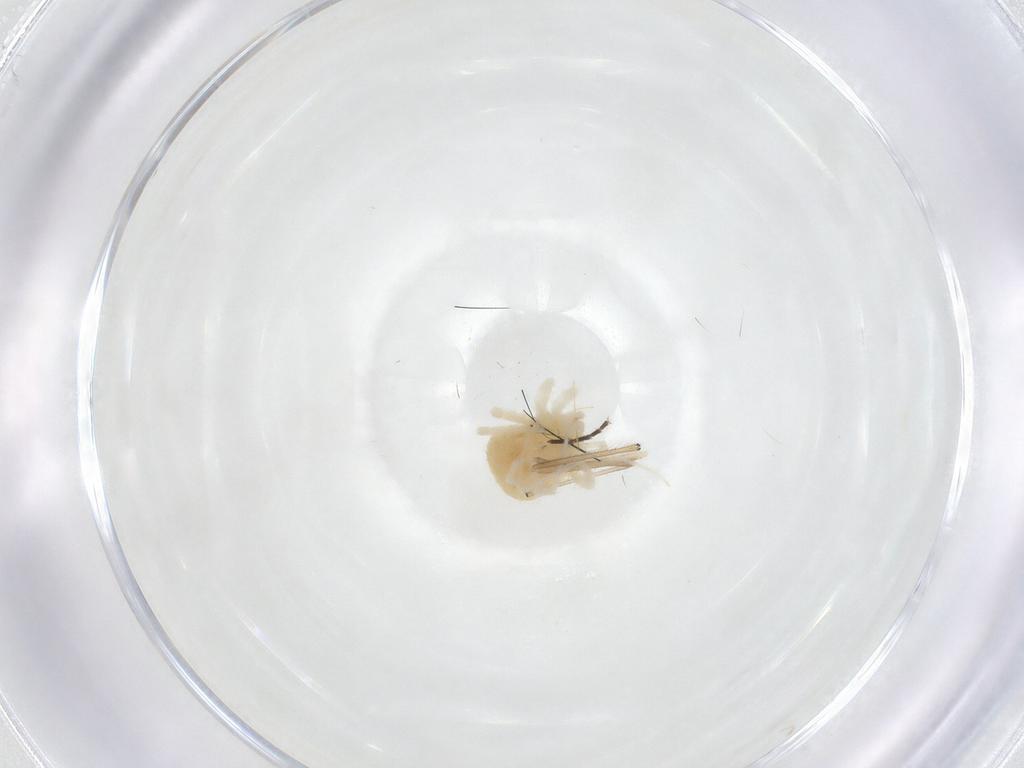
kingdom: Animalia
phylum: Arthropoda
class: Arachnida
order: Trombidiformes
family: Anystidae
